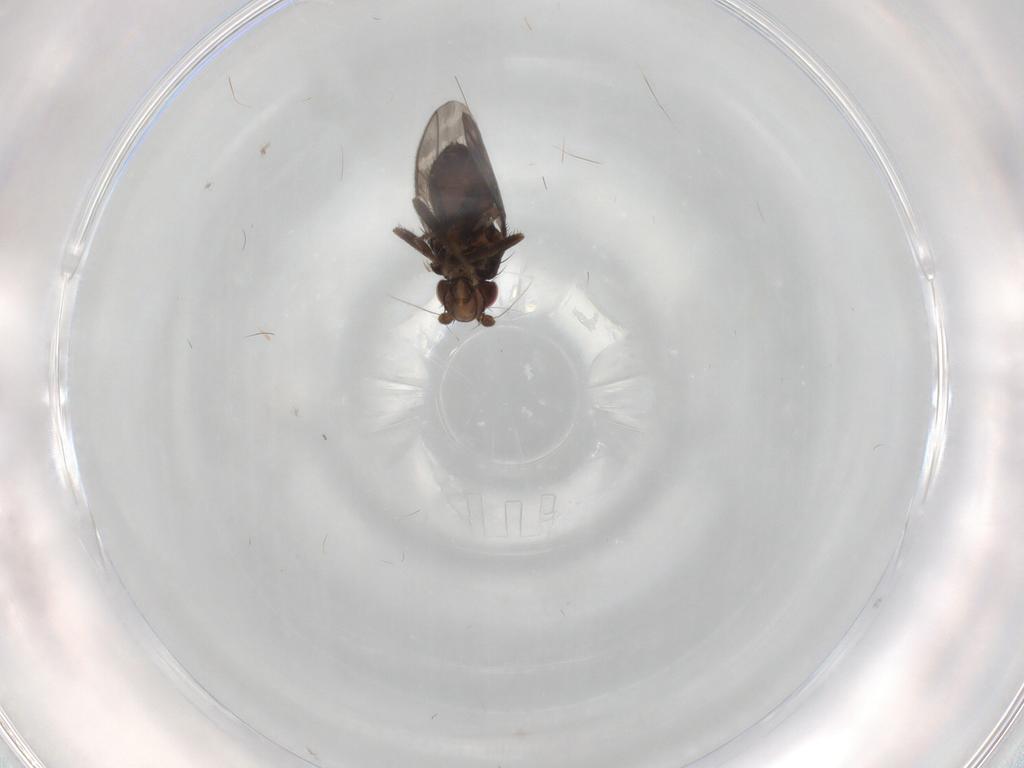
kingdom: Animalia
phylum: Arthropoda
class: Insecta
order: Diptera
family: Sphaeroceridae
